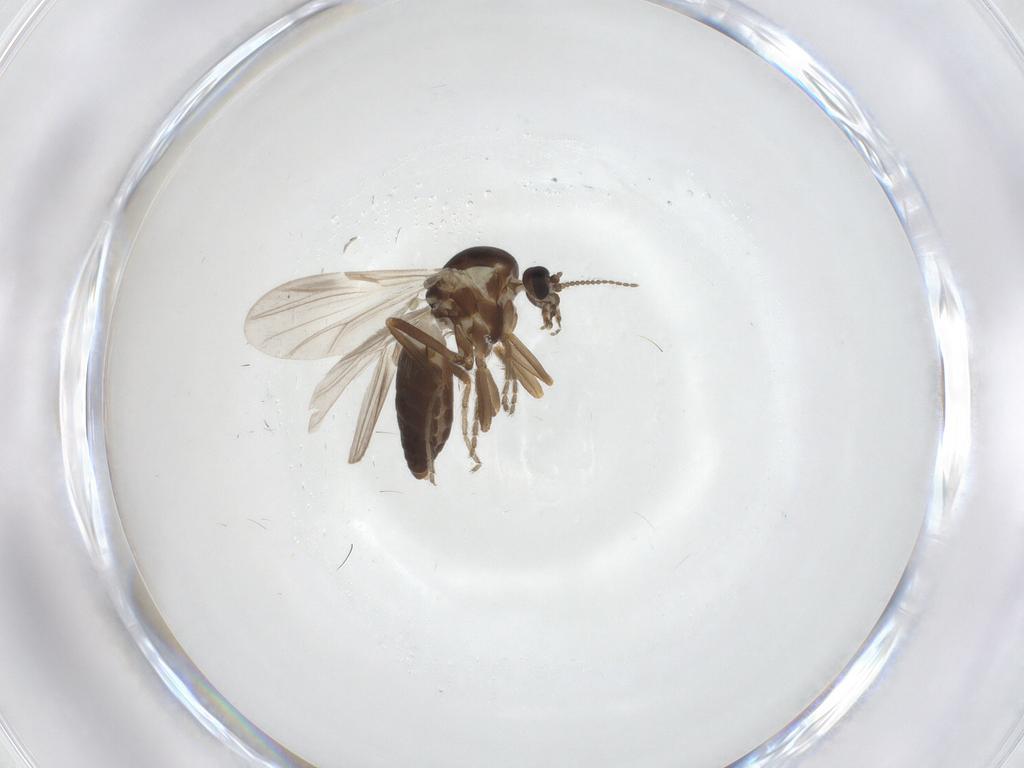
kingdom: Animalia
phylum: Arthropoda
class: Insecta
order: Diptera
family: Ceratopogonidae
